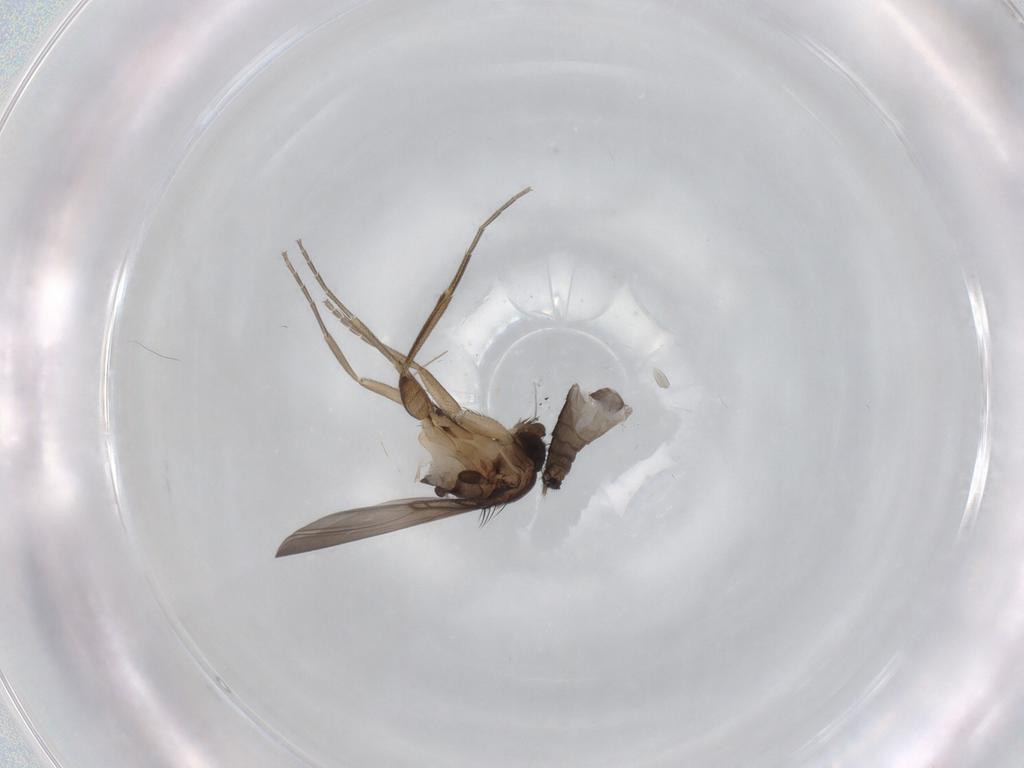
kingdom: Animalia
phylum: Arthropoda
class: Insecta
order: Diptera
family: Phoridae
